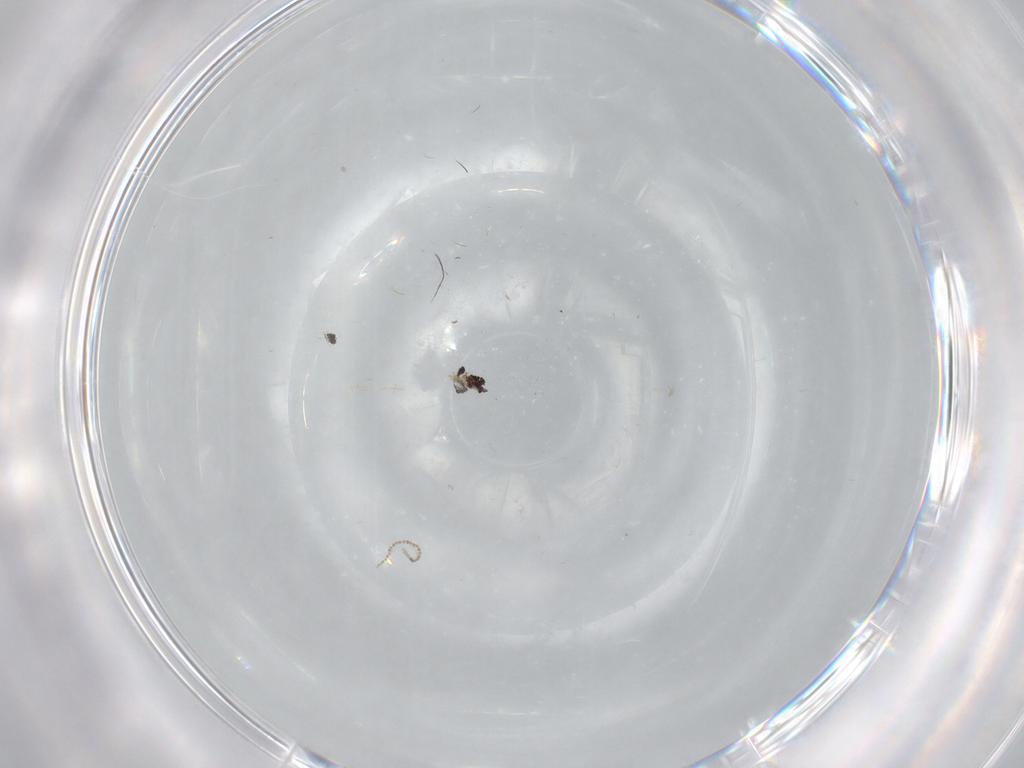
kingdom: Animalia
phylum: Arthropoda
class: Insecta
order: Diptera
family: Cecidomyiidae
